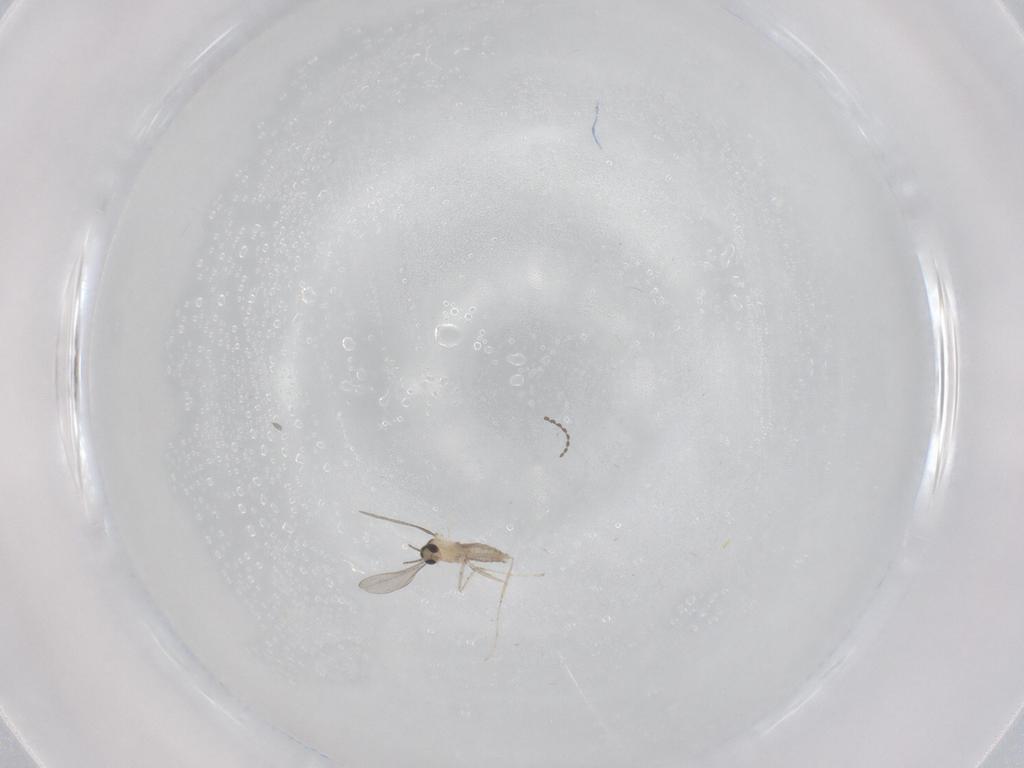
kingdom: Animalia
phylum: Arthropoda
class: Insecta
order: Diptera
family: Cecidomyiidae
